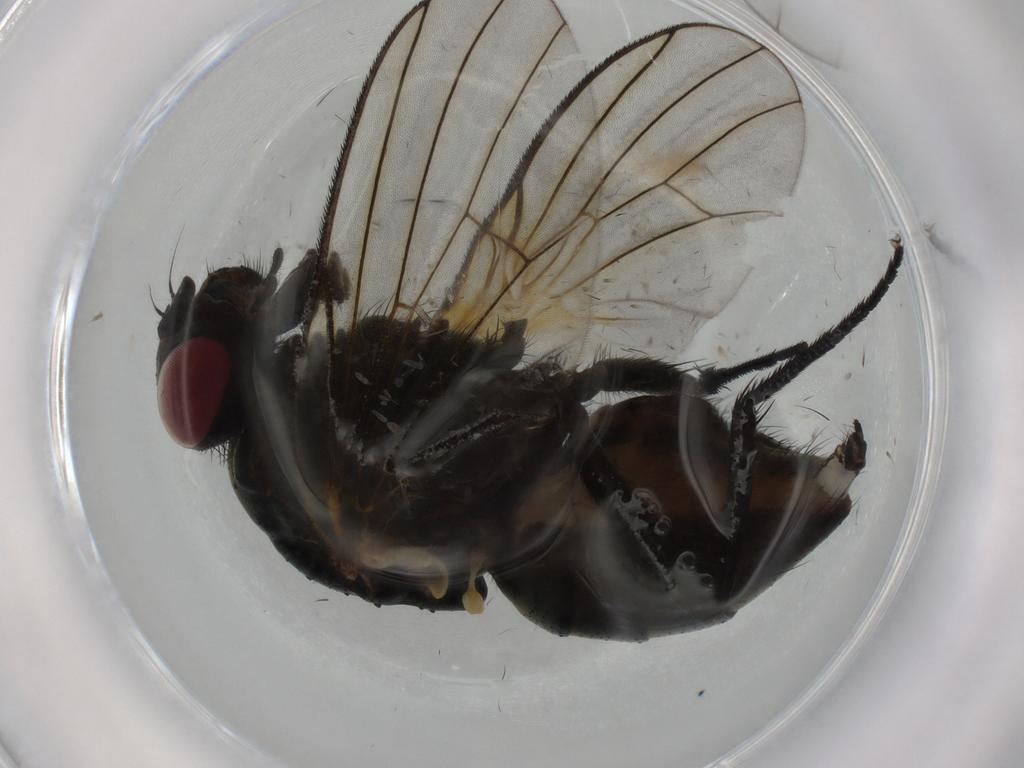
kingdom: Animalia
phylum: Arthropoda
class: Insecta
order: Diptera
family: Muscidae
